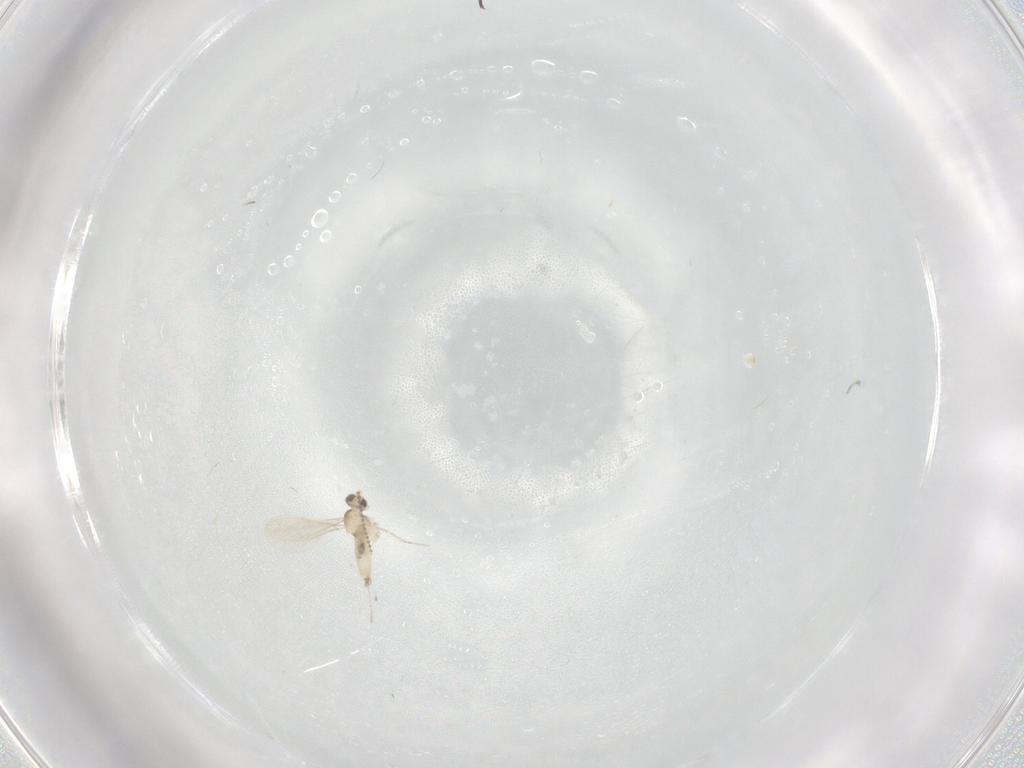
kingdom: Animalia
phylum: Arthropoda
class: Insecta
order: Diptera
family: Cecidomyiidae
